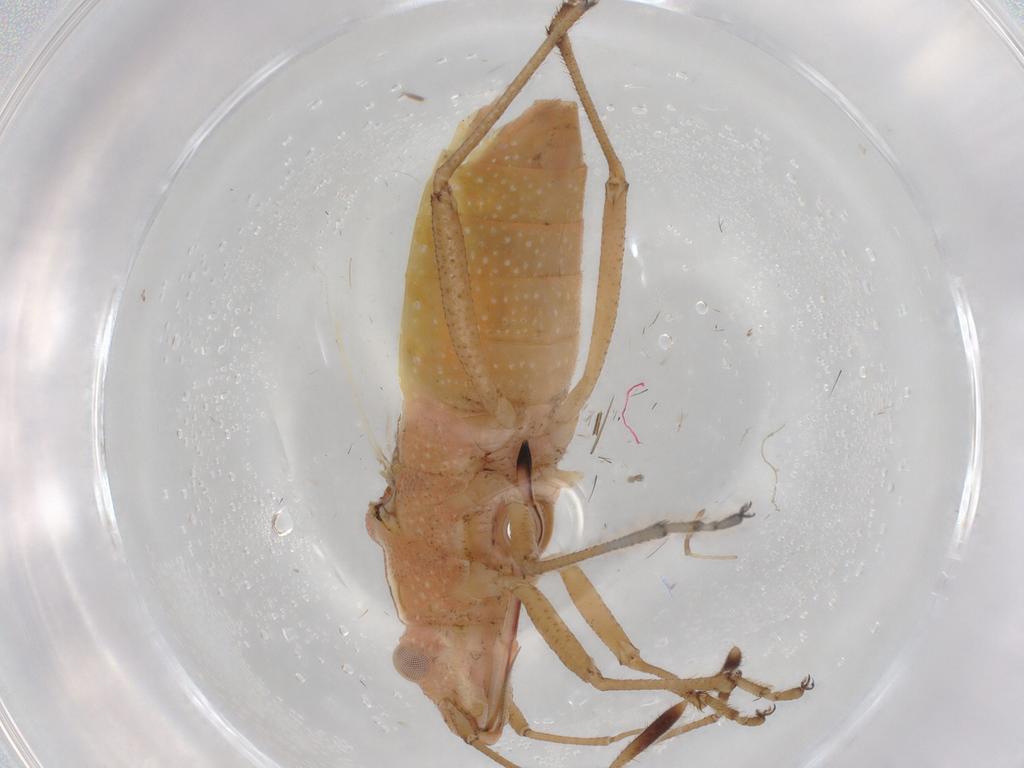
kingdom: Animalia
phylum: Arthropoda
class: Insecta
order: Hemiptera
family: Rhopalidae
